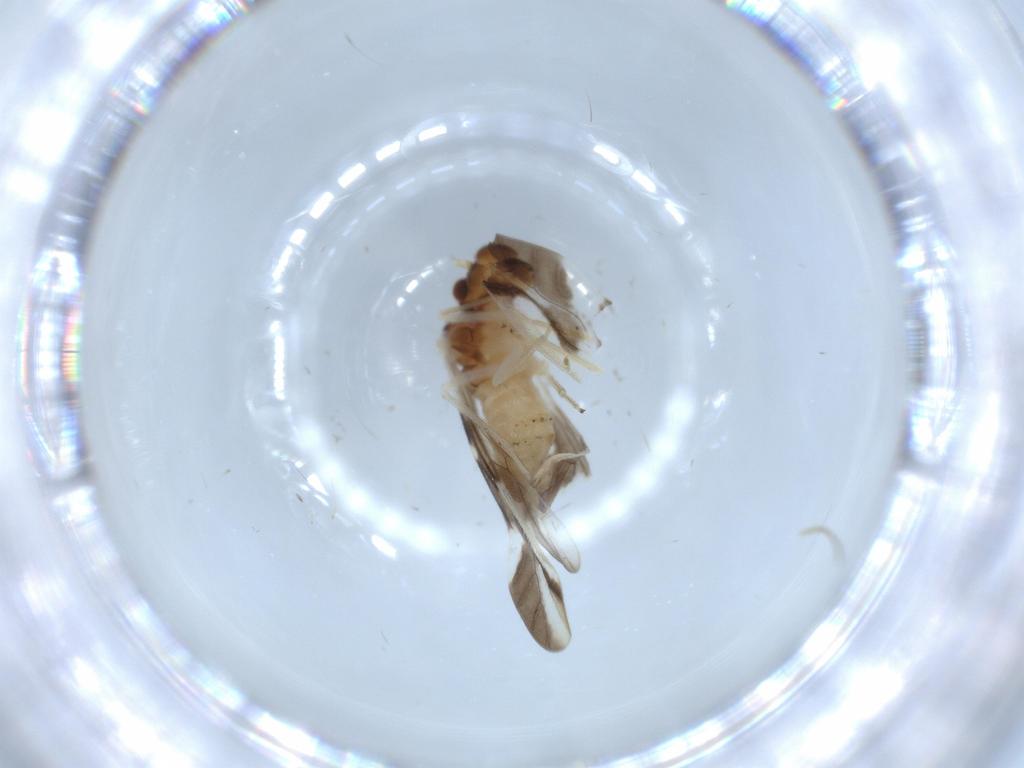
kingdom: Animalia
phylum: Arthropoda
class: Insecta
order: Psocodea
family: Caeciliusidae
